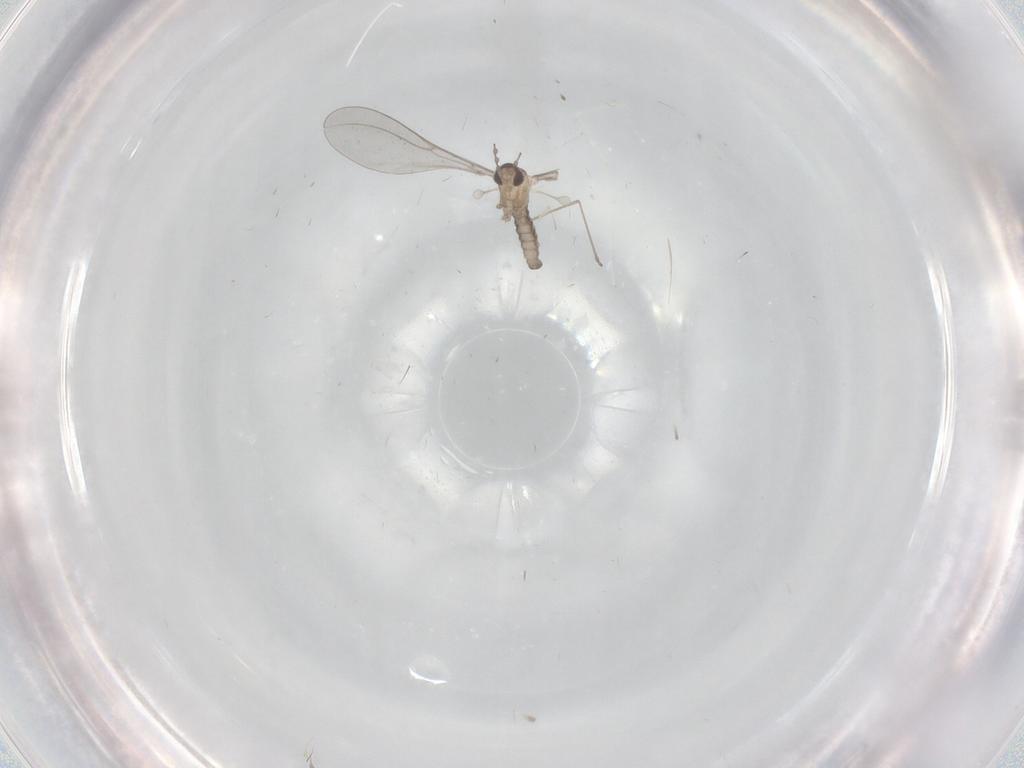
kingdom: Animalia
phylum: Arthropoda
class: Insecta
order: Diptera
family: Cecidomyiidae
